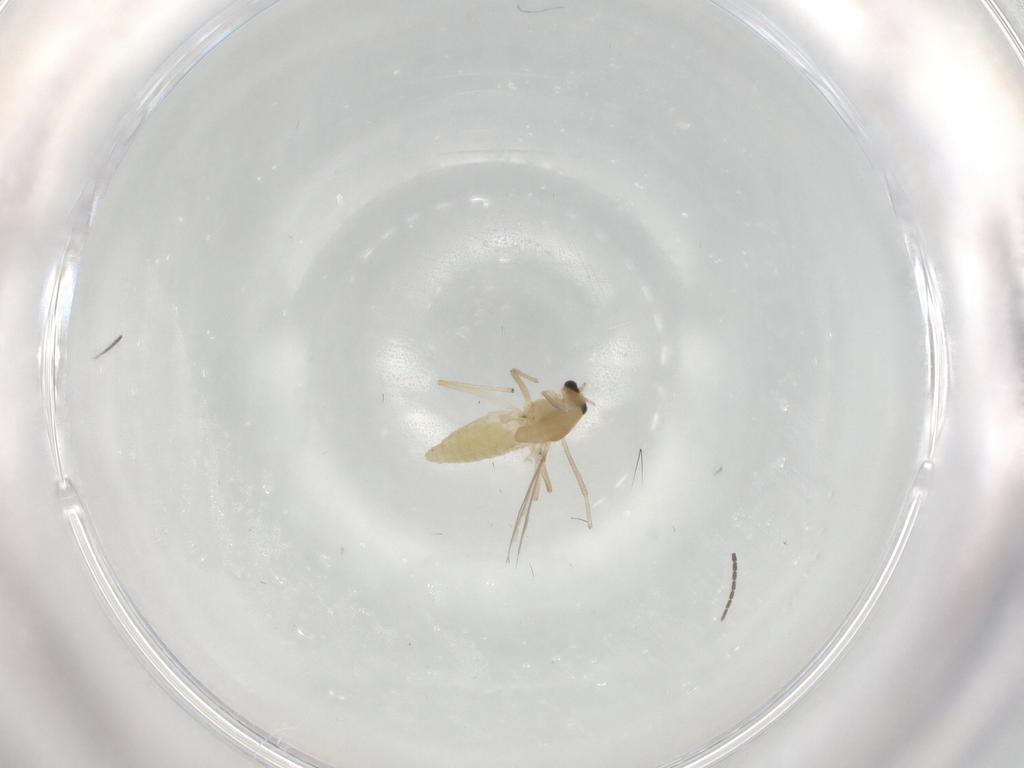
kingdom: Animalia
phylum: Arthropoda
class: Insecta
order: Diptera
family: Chironomidae
